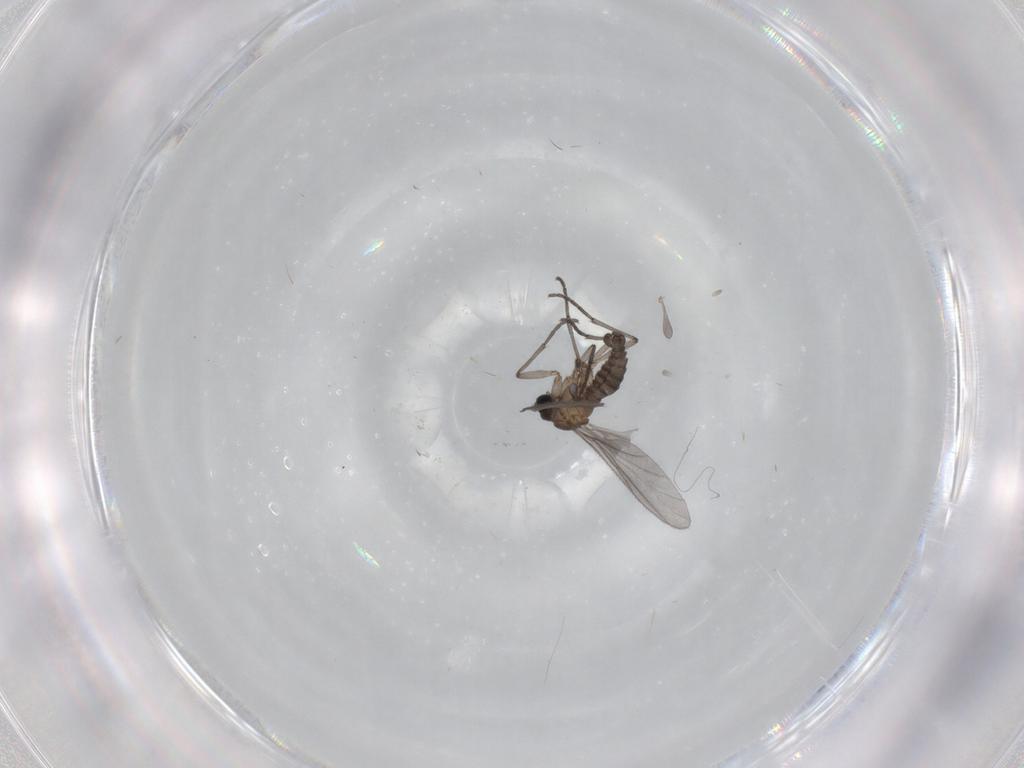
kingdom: Animalia
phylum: Arthropoda
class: Insecta
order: Diptera
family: Sciaridae
